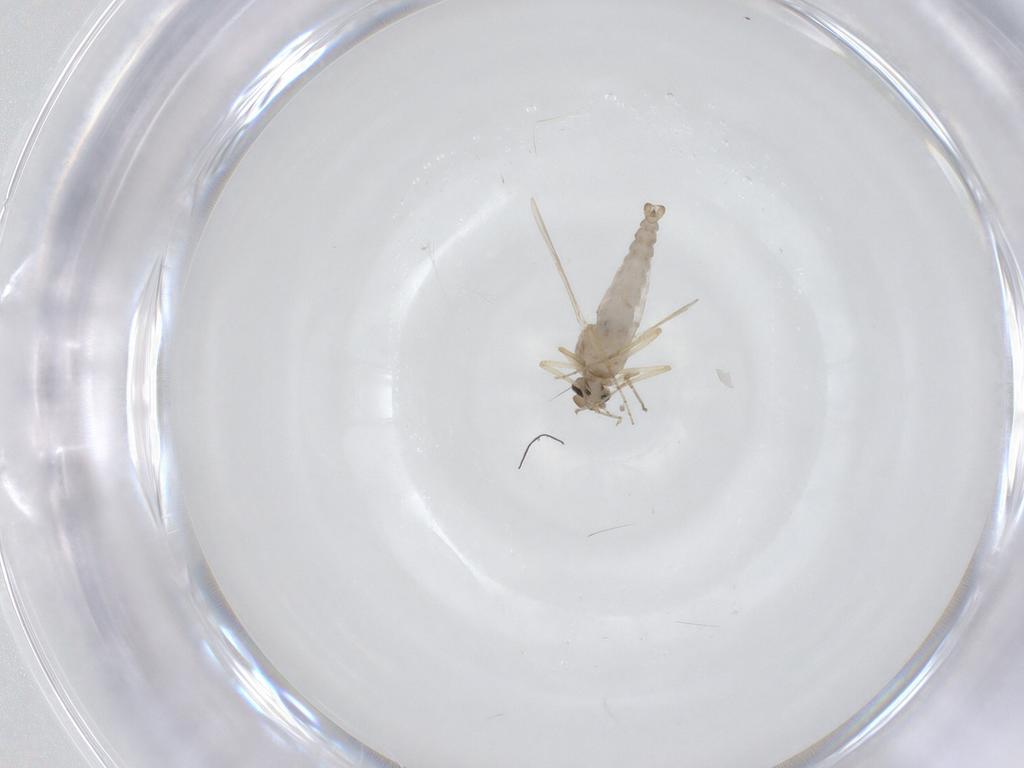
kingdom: Animalia
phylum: Arthropoda
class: Insecta
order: Diptera
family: Ceratopogonidae
